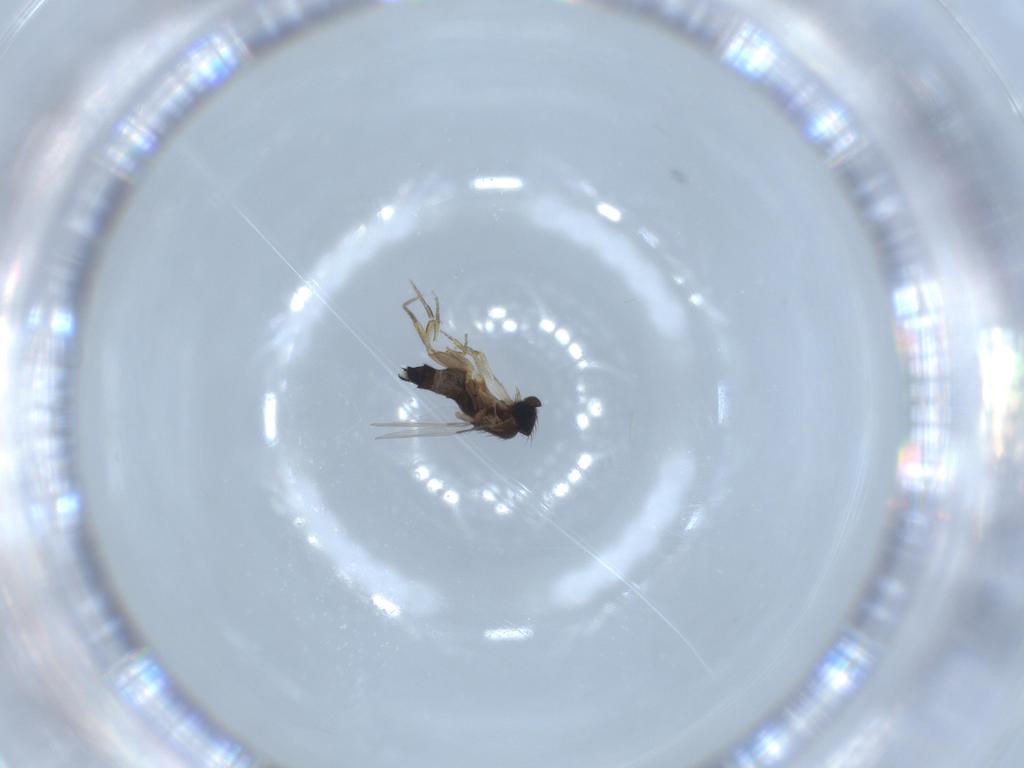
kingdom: Animalia
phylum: Arthropoda
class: Insecta
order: Diptera
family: Phoridae
